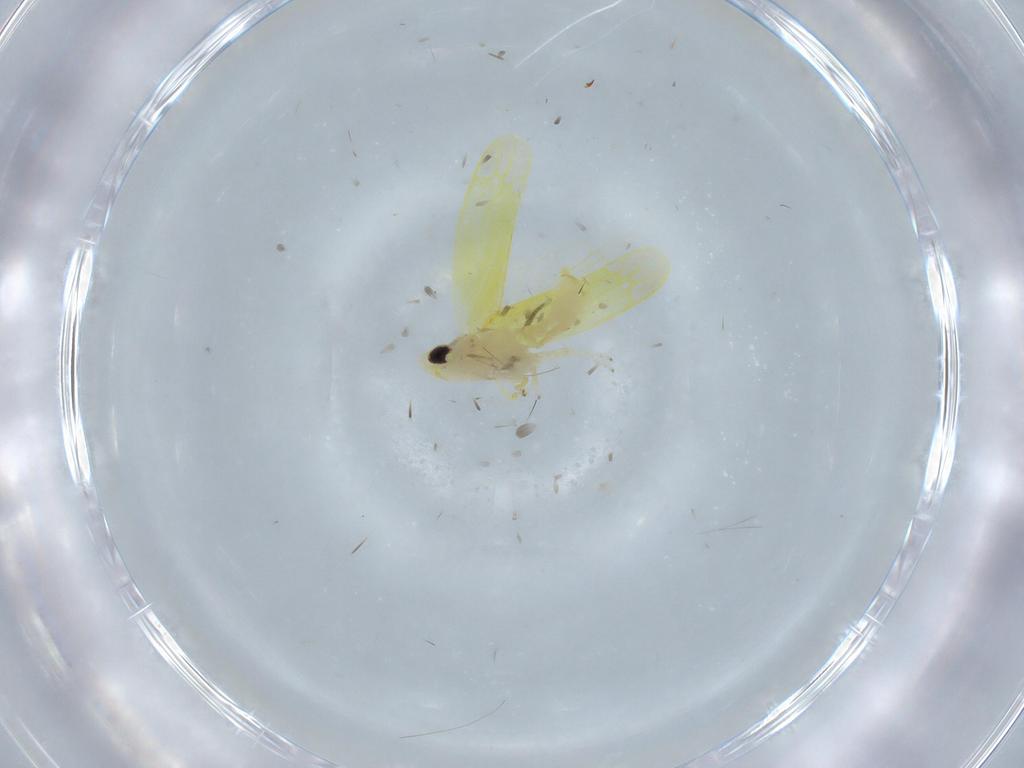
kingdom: Animalia
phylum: Arthropoda
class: Insecta
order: Hemiptera
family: Cicadellidae
